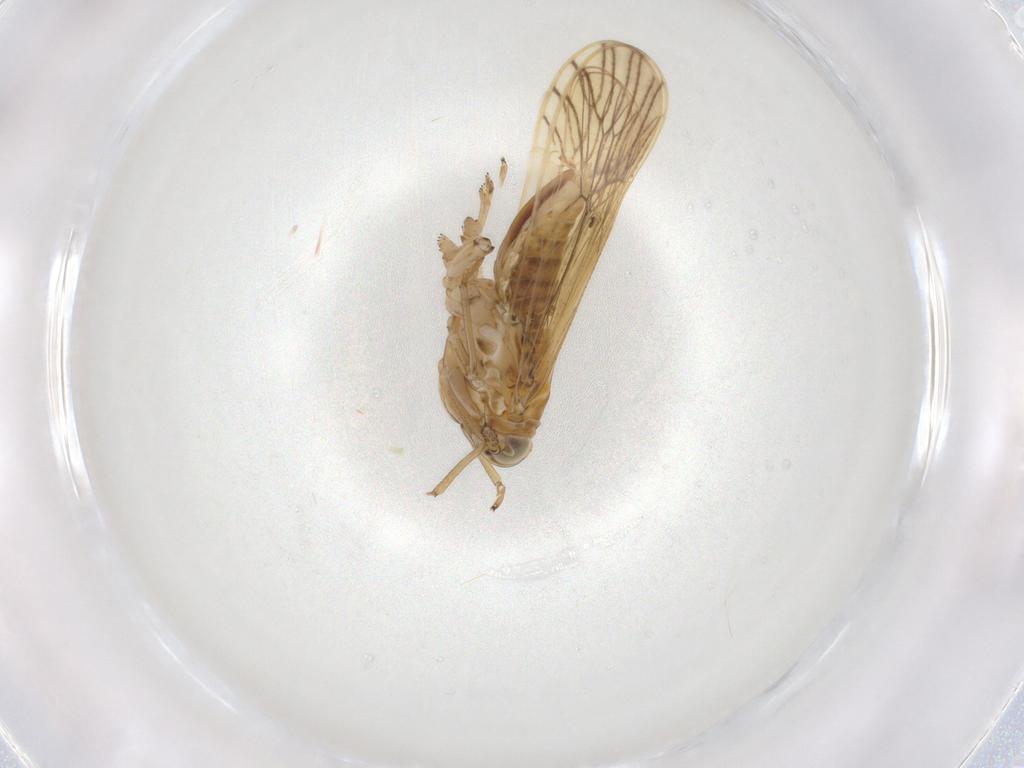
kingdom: Animalia
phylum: Arthropoda
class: Insecta
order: Hemiptera
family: Delphacidae
